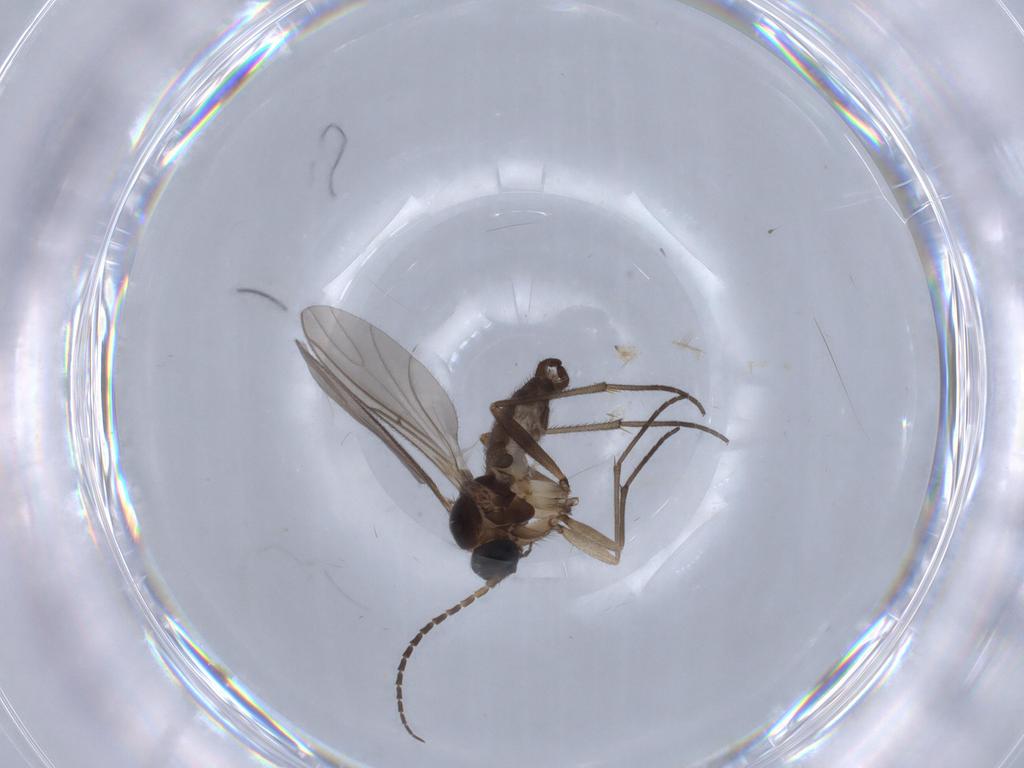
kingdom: Animalia
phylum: Arthropoda
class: Insecta
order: Diptera
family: Sciaridae
